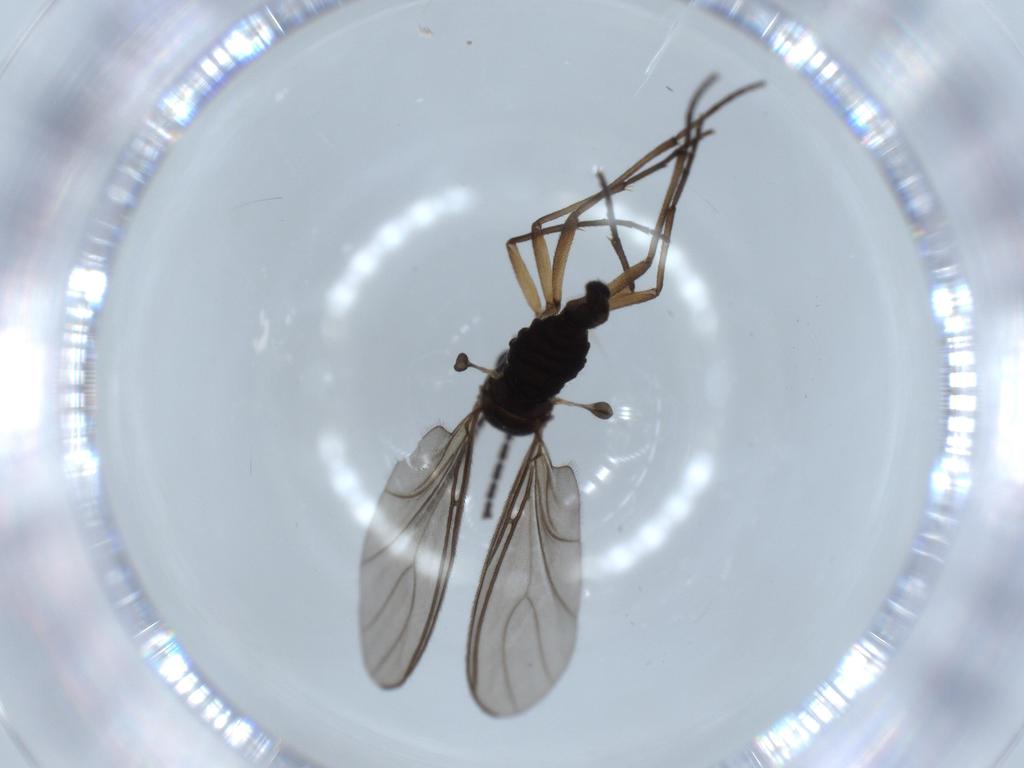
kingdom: Animalia
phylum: Arthropoda
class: Insecta
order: Diptera
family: Sciaridae
